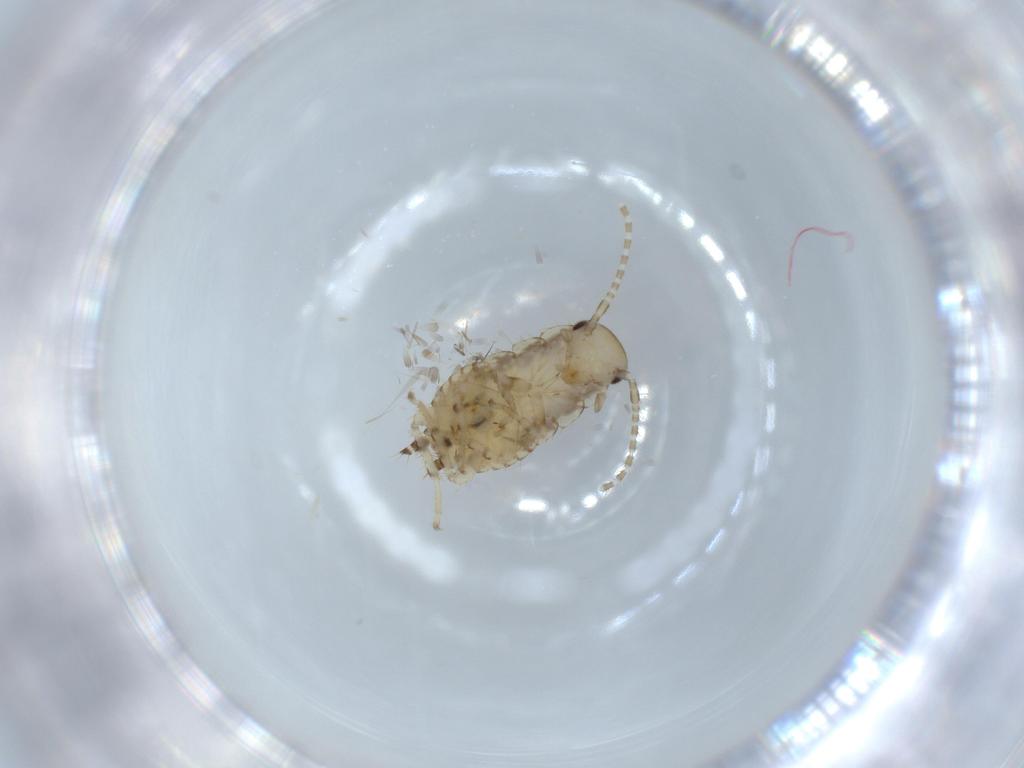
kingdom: Animalia
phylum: Arthropoda
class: Insecta
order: Blattodea
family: Ectobiidae
